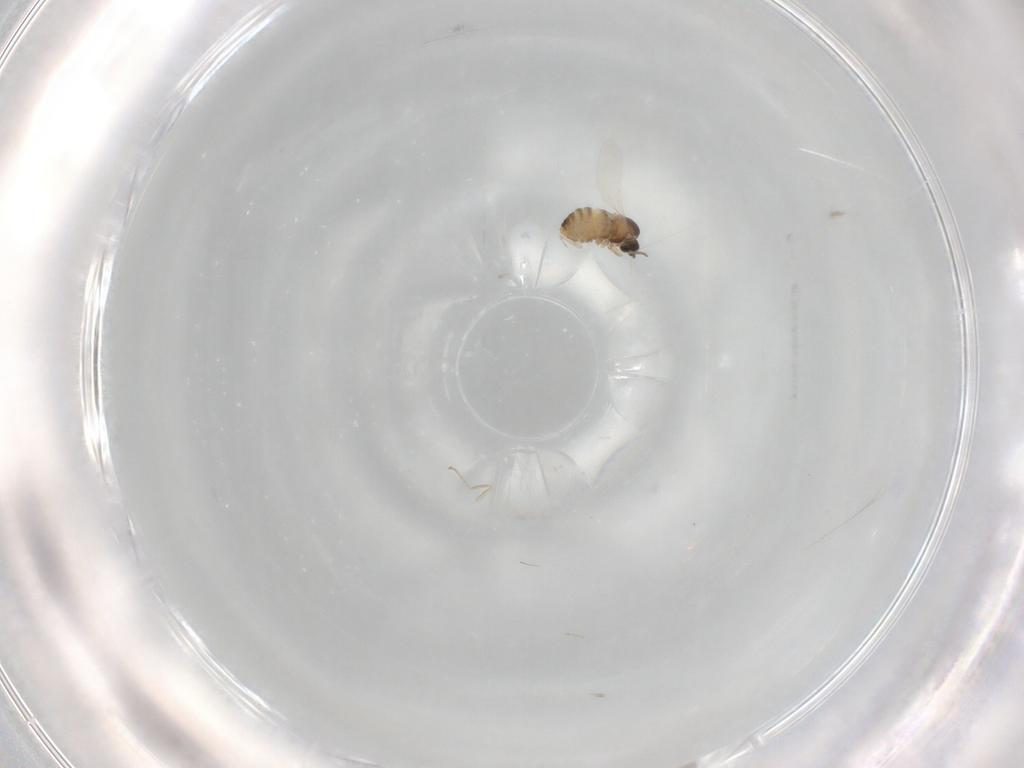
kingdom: Animalia
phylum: Arthropoda
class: Insecta
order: Diptera
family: Cecidomyiidae
